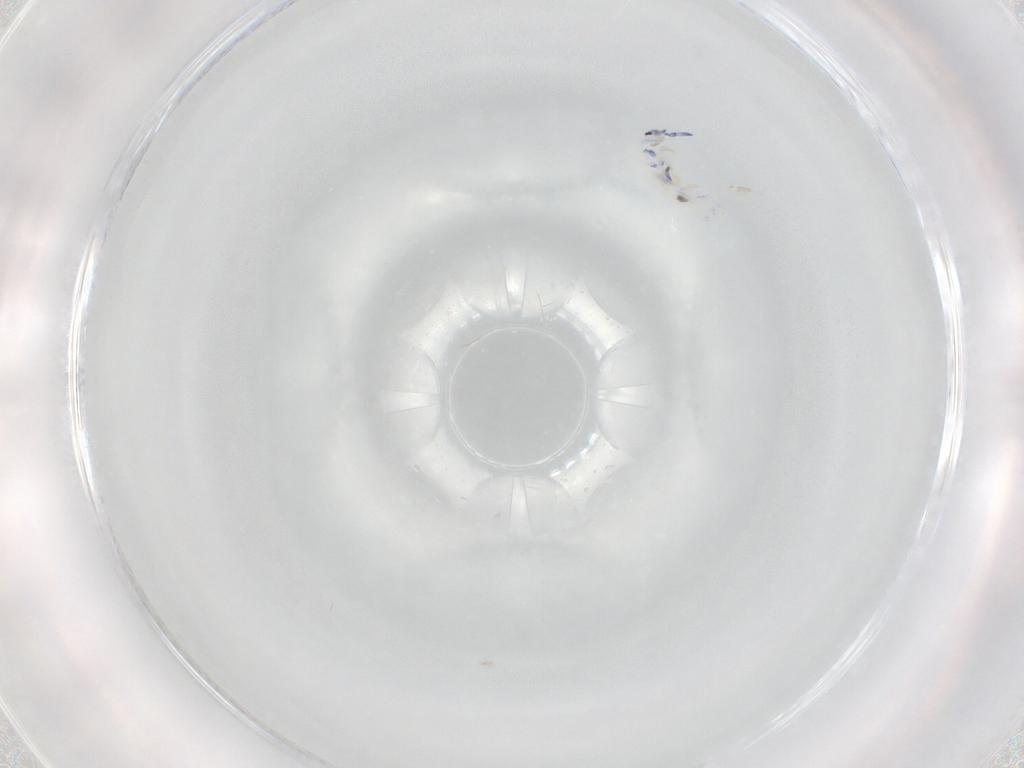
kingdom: Animalia
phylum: Arthropoda
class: Collembola
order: Entomobryomorpha
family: Entomobryidae
